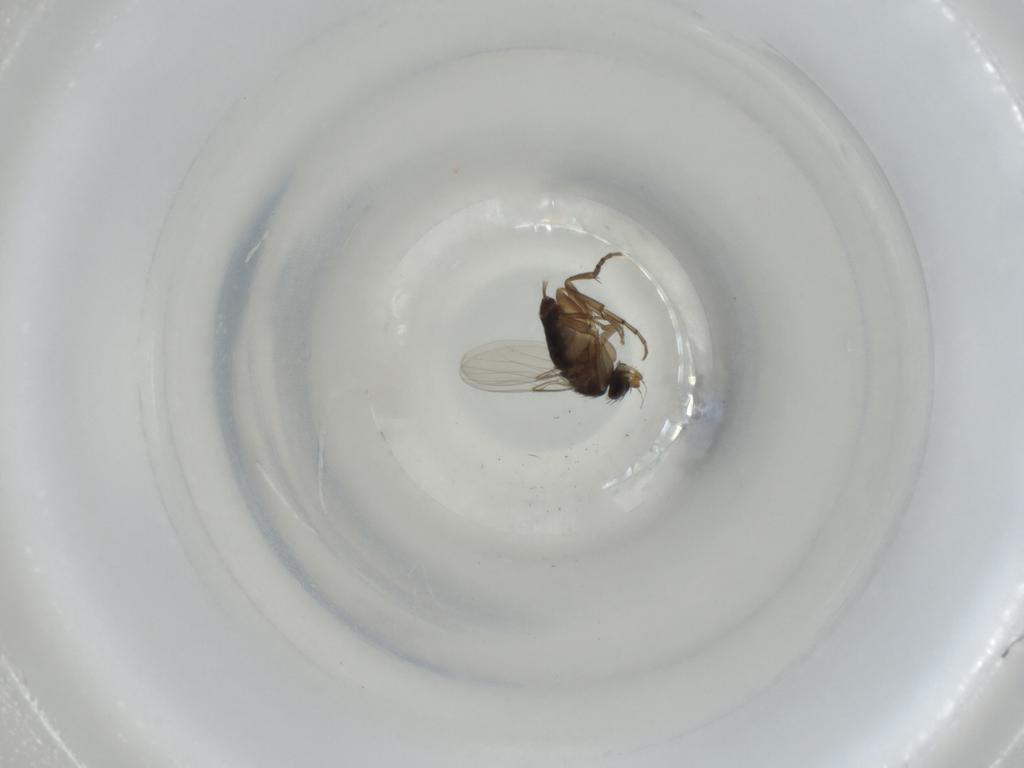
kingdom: Animalia
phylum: Arthropoda
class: Insecta
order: Diptera
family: Phoridae
